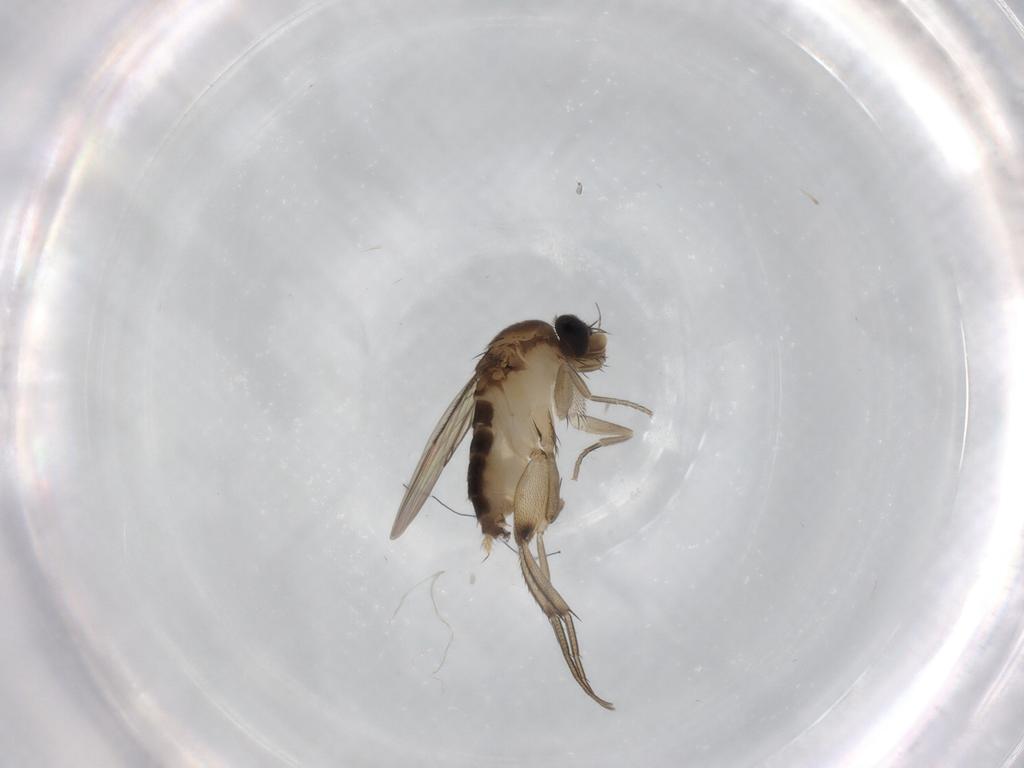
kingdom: Animalia
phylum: Arthropoda
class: Insecta
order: Diptera
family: Phoridae
